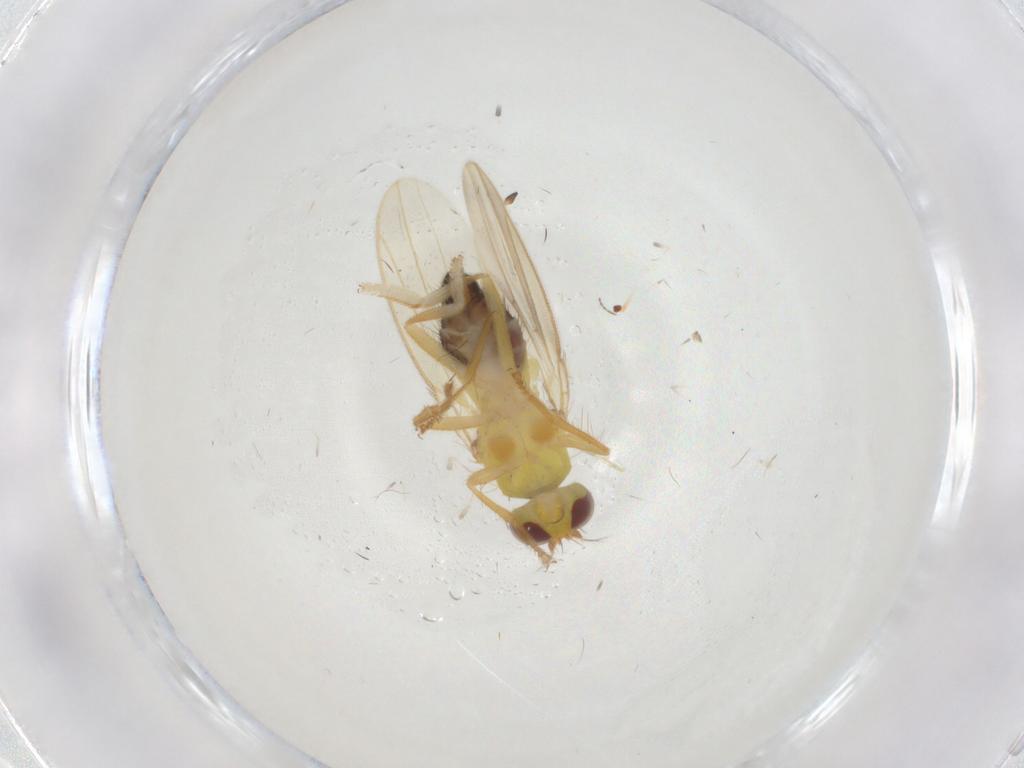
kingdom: Animalia
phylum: Arthropoda
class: Insecta
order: Diptera
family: Periscelididae
